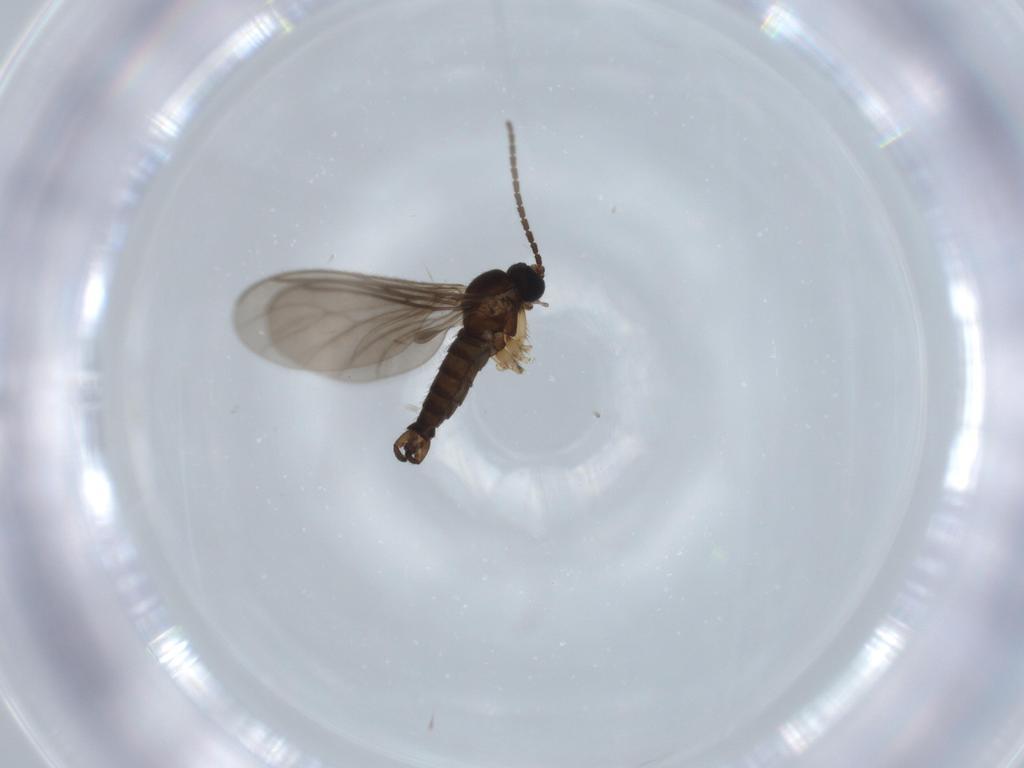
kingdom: Animalia
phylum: Arthropoda
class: Insecta
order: Diptera
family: Sciaridae
